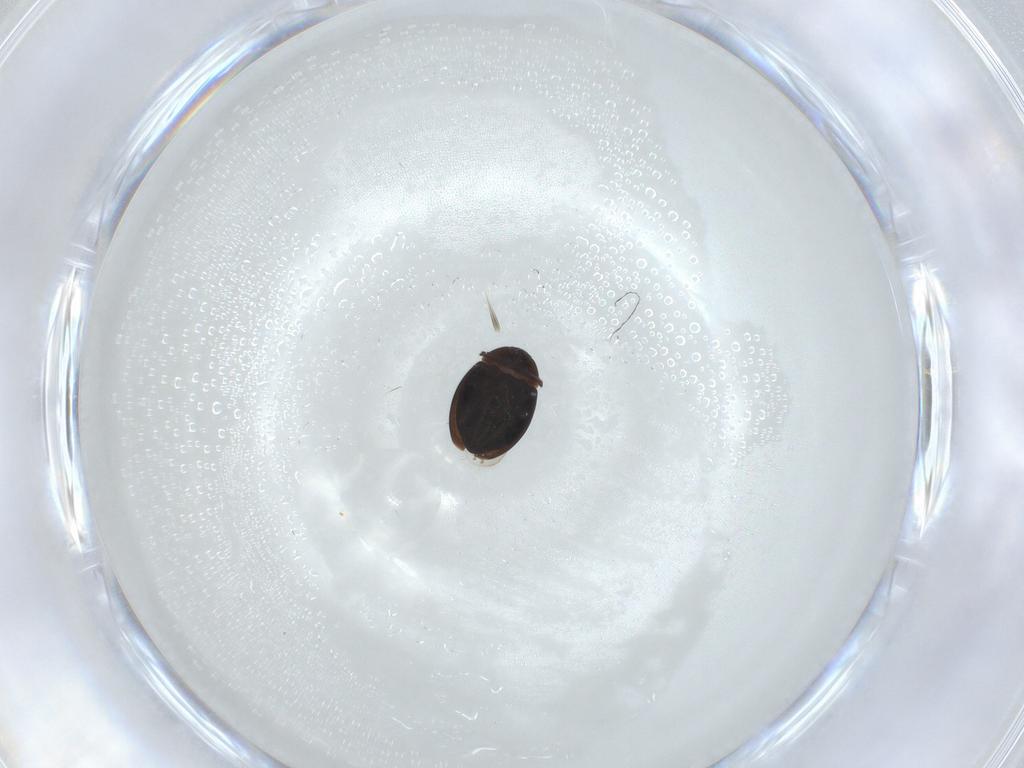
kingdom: Animalia
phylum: Arthropoda
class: Insecta
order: Coleoptera
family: Corylophidae
